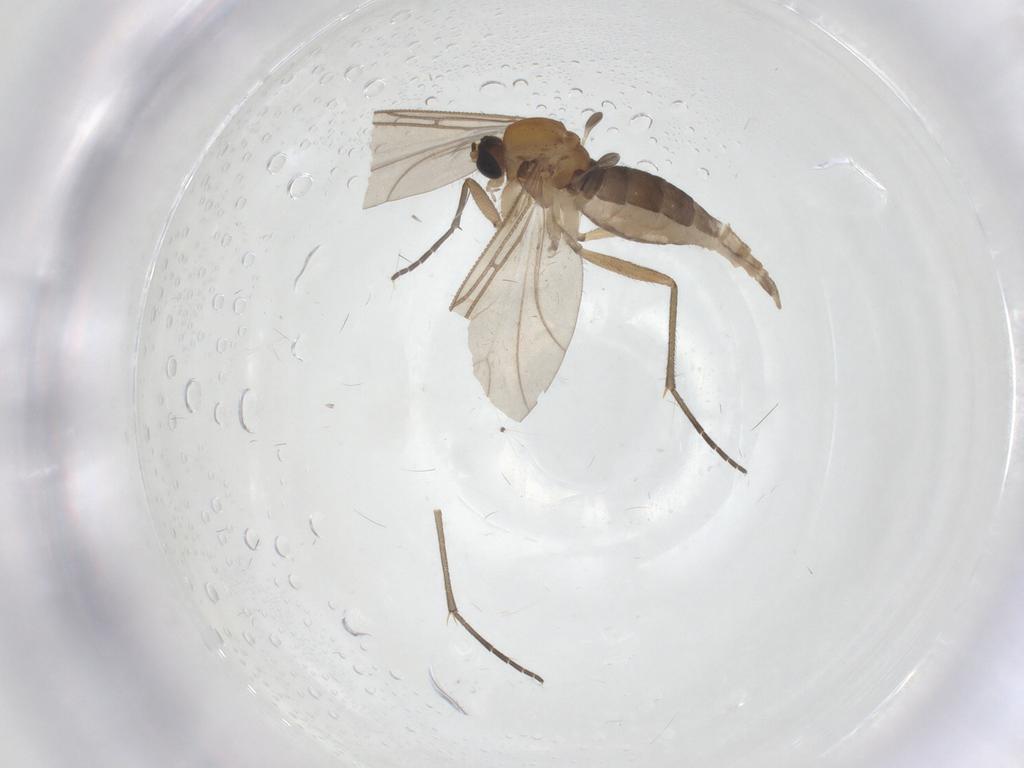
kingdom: Animalia
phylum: Arthropoda
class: Insecta
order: Diptera
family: Sciaridae
